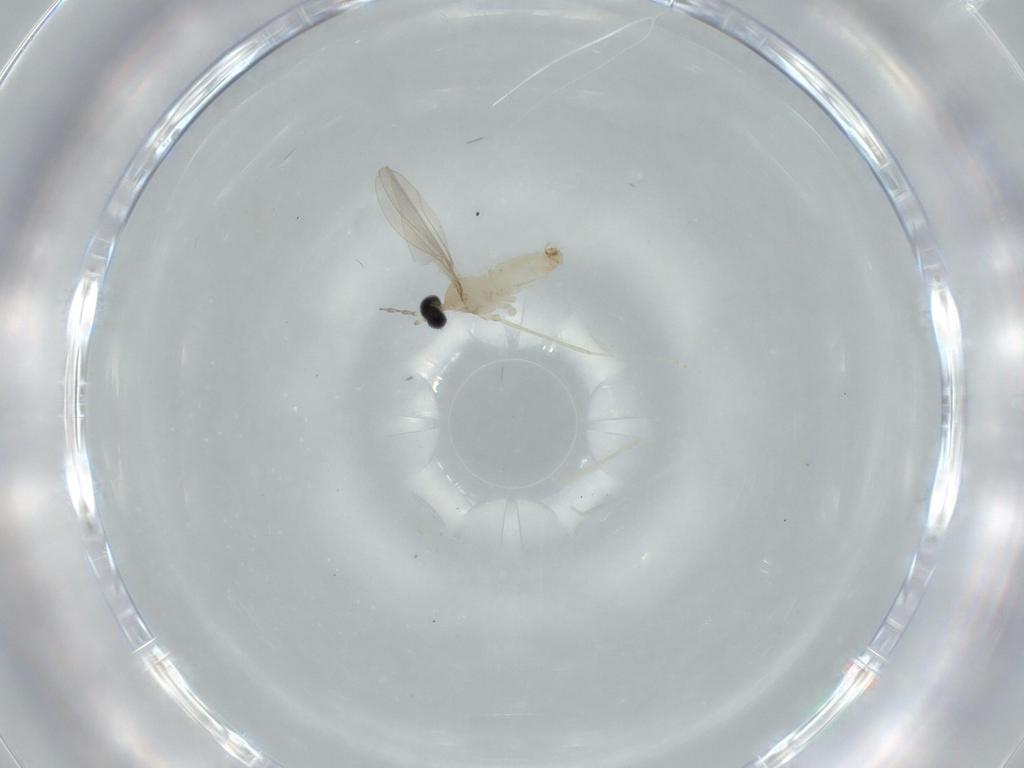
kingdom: Animalia
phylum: Arthropoda
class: Insecta
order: Diptera
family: Cecidomyiidae
